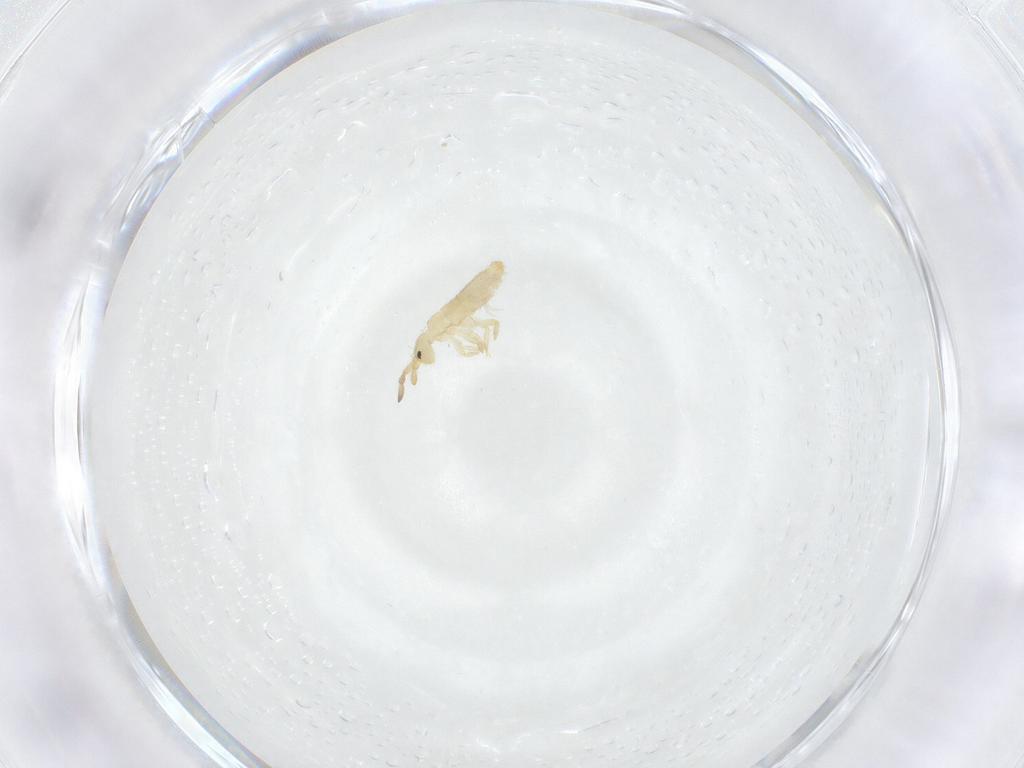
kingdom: Animalia
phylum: Arthropoda
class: Collembola
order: Entomobryomorpha
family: Entomobryidae
